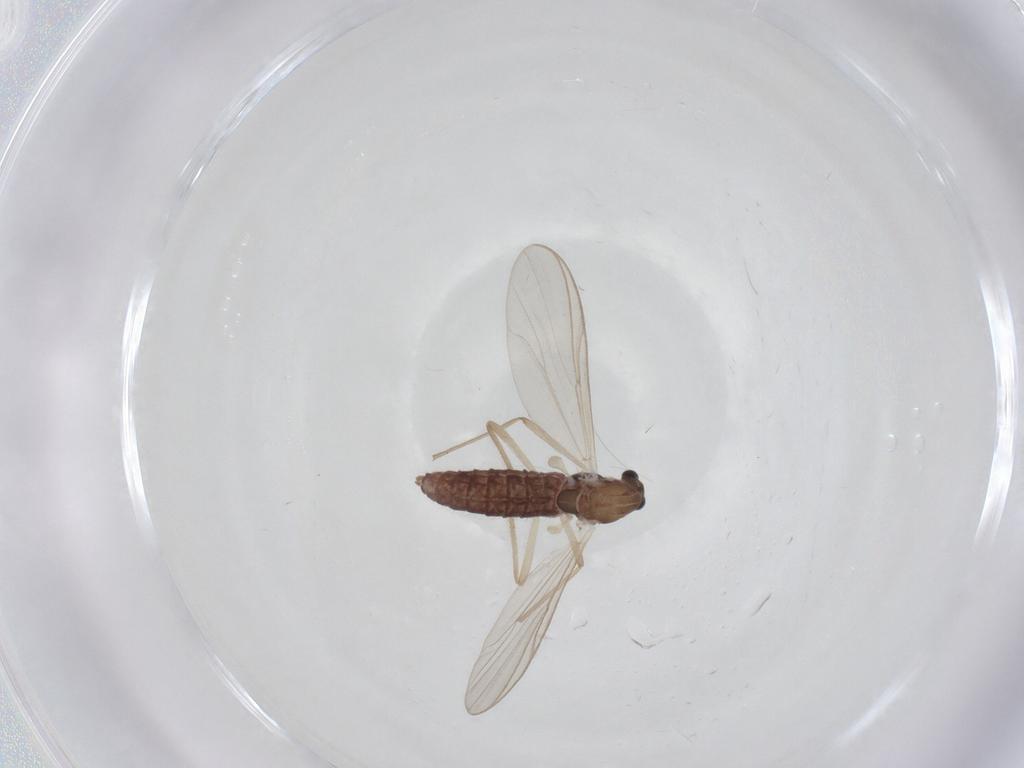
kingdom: Animalia
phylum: Arthropoda
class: Insecta
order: Diptera
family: Chironomidae
